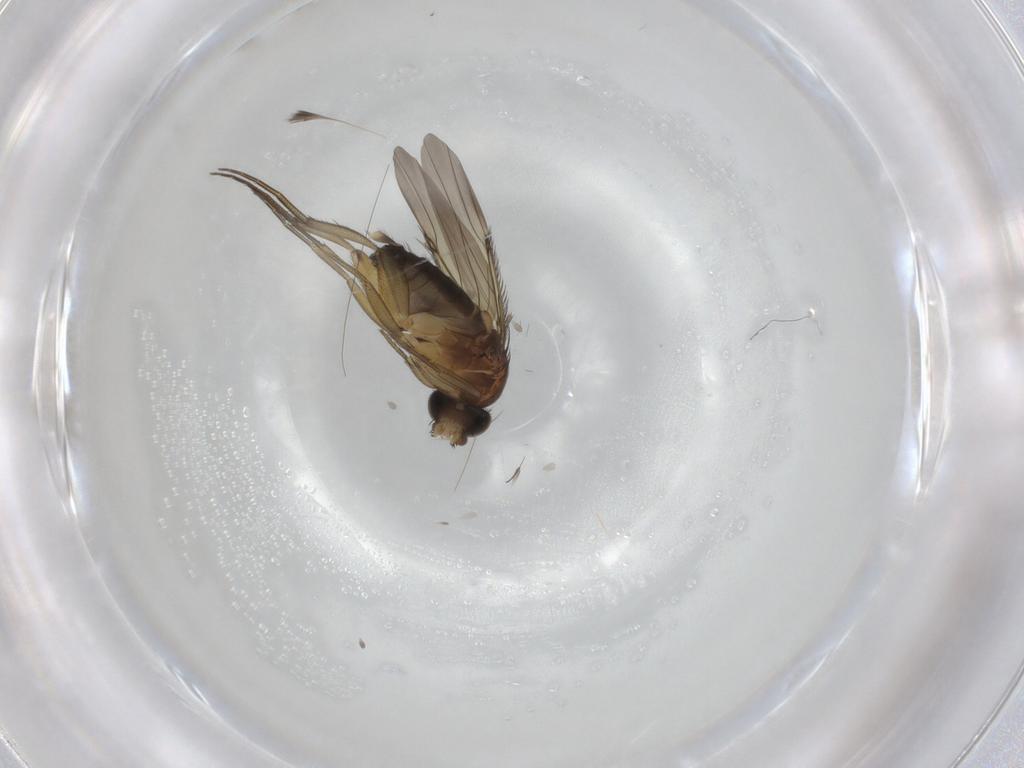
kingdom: Animalia
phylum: Arthropoda
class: Insecta
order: Diptera
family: Phoridae
